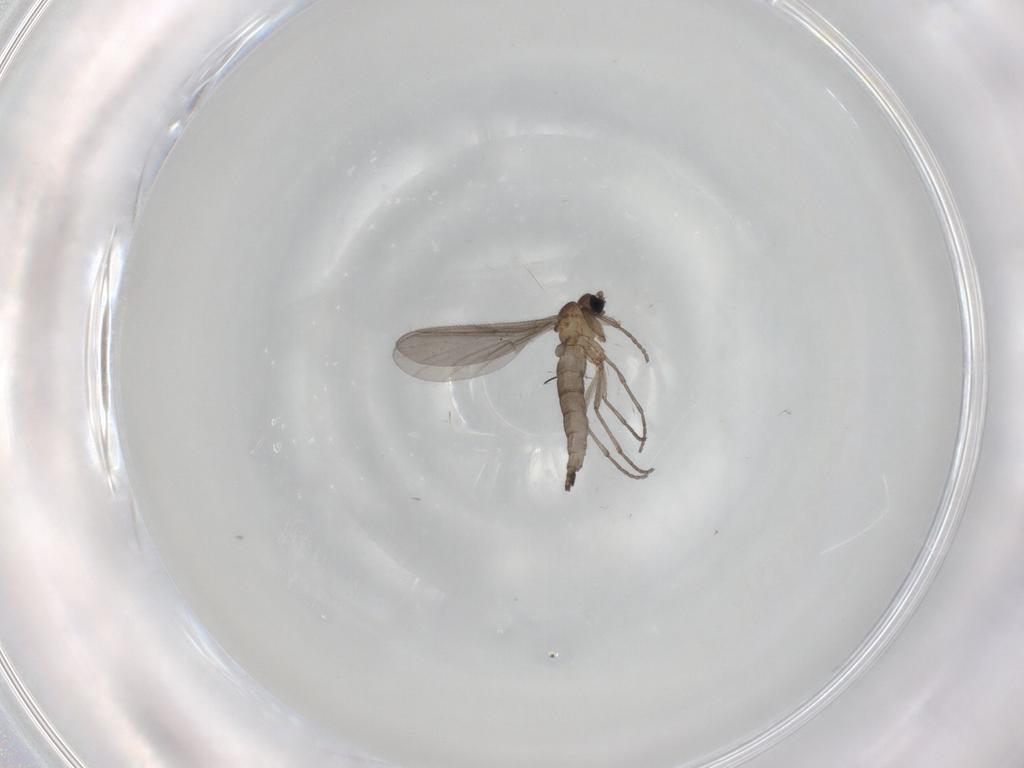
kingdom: Animalia
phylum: Arthropoda
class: Insecta
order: Diptera
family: Sciaridae
